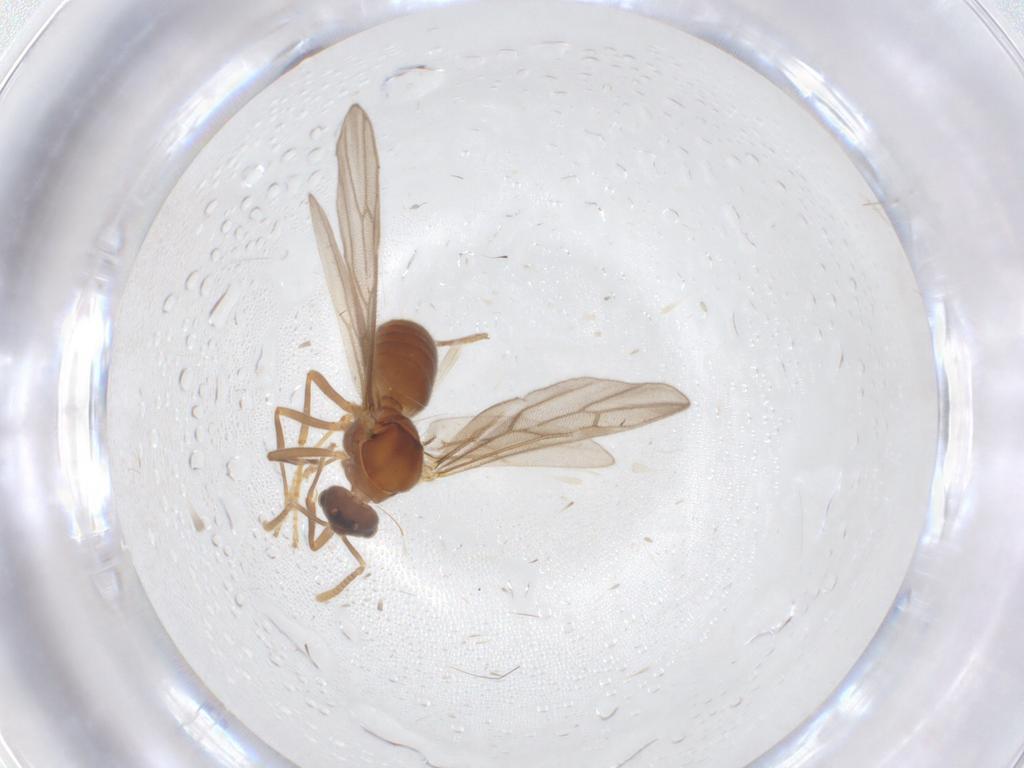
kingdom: Animalia
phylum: Arthropoda
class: Insecta
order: Hymenoptera
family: Formicidae
